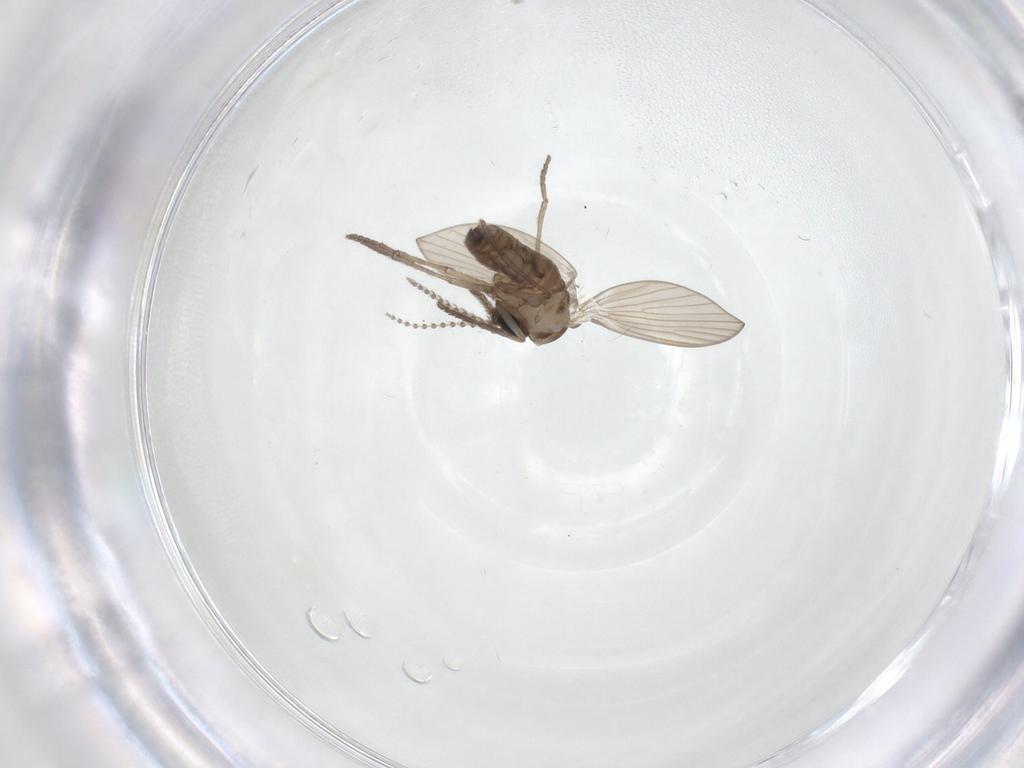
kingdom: Animalia
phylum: Arthropoda
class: Insecta
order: Diptera
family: Psychodidae
